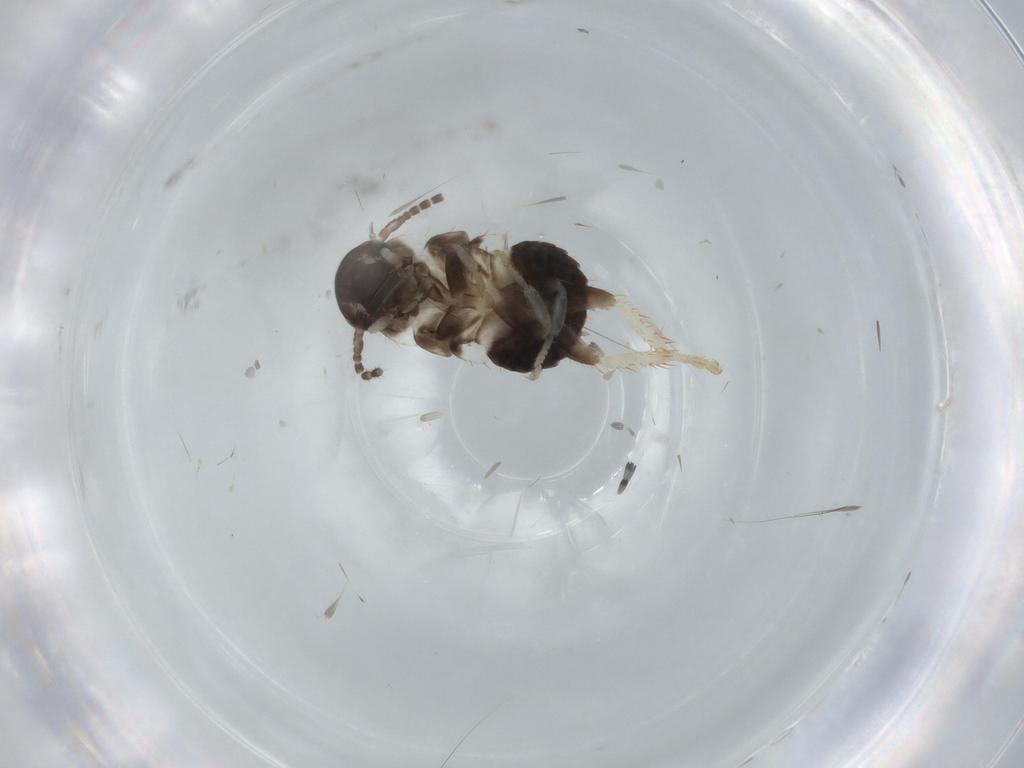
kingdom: Animalia
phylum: Arthropoda
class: Insecta
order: Blattodea
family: Ectobiidae
